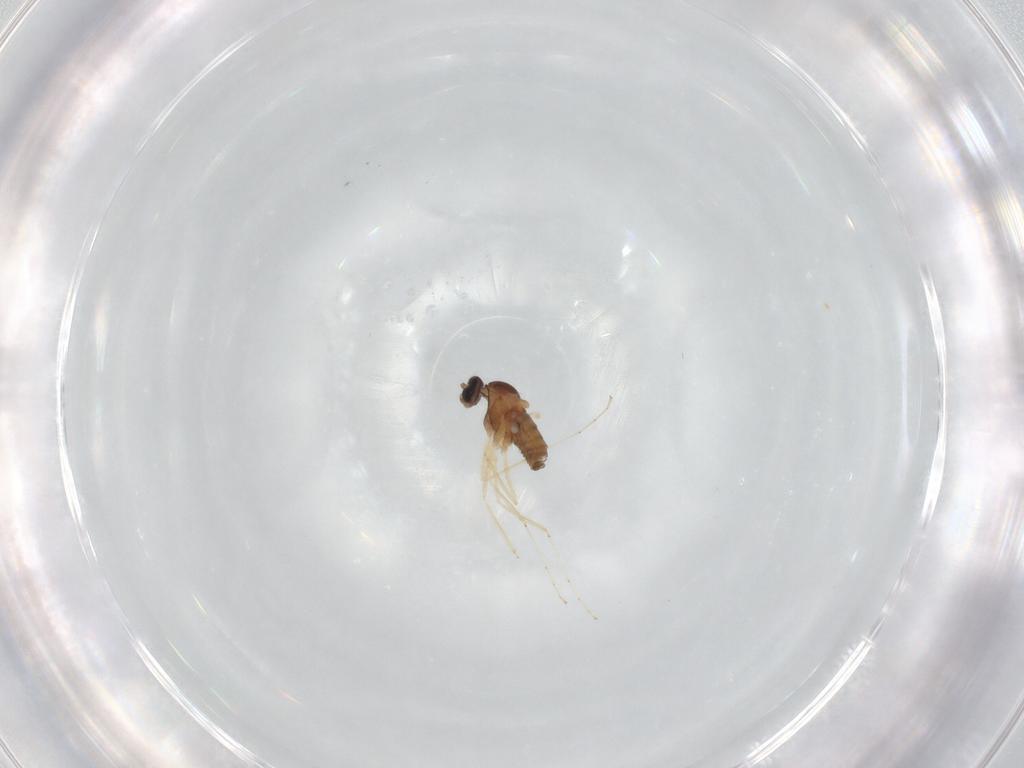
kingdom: Animalia
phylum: Arthropoda
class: Insecta
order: Diptera
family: Cecidomyiidae
